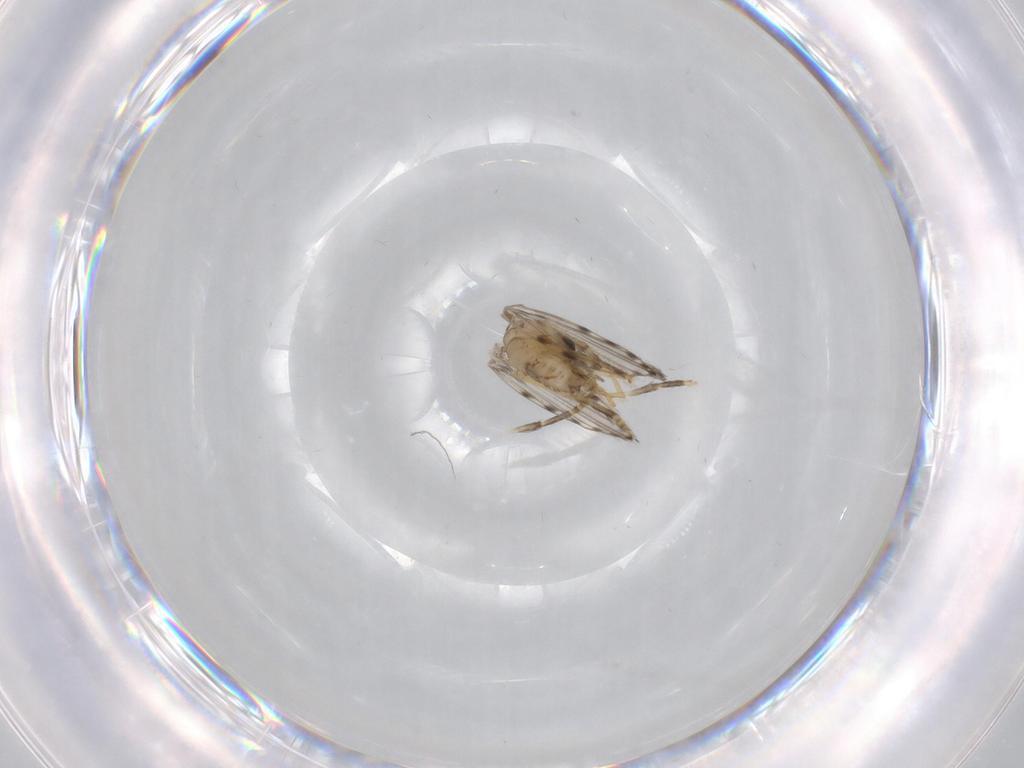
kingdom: Animalia
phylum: Arthropoda
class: Insecta
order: Diptera
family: Psychodidae
